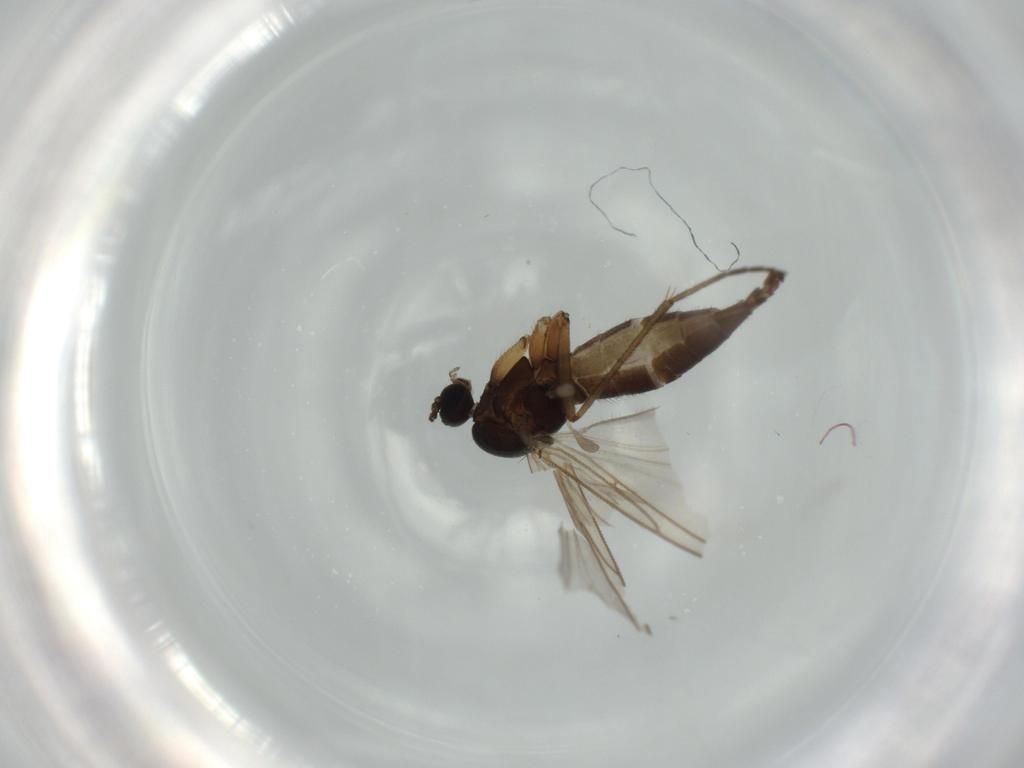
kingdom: Animalia
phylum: Arthropoda
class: Insecta
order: Diptera
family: Sciaridae
